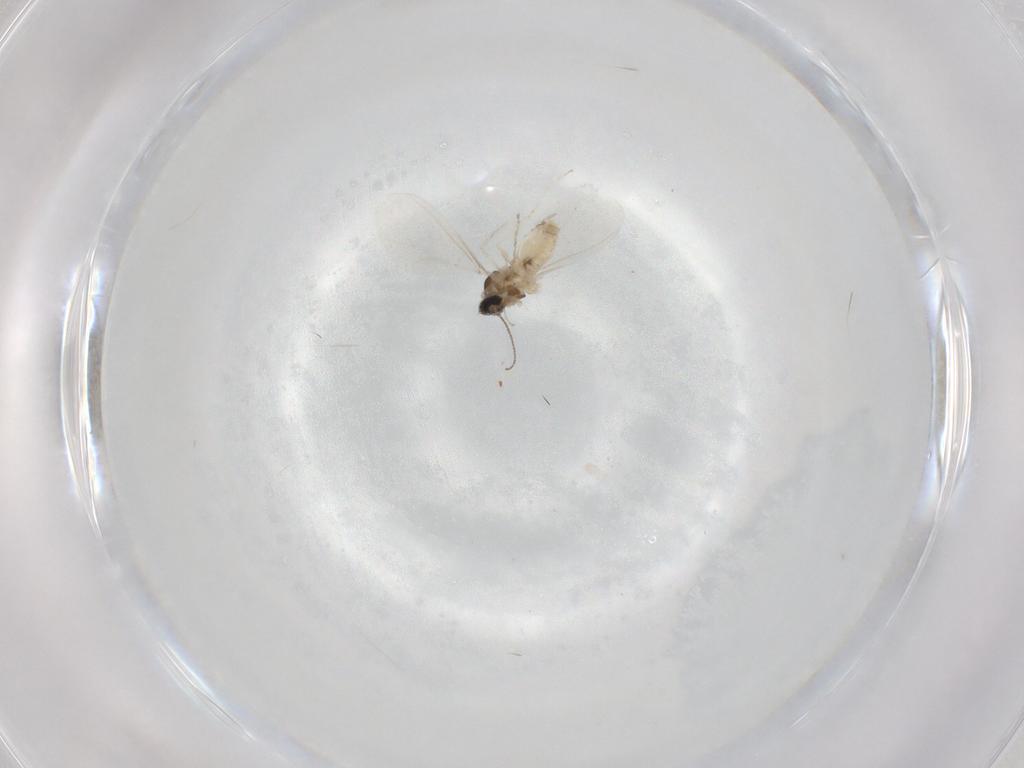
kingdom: Animalia
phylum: Arthropoda
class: Insecta
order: Diptera
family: Cecidomyiidae
